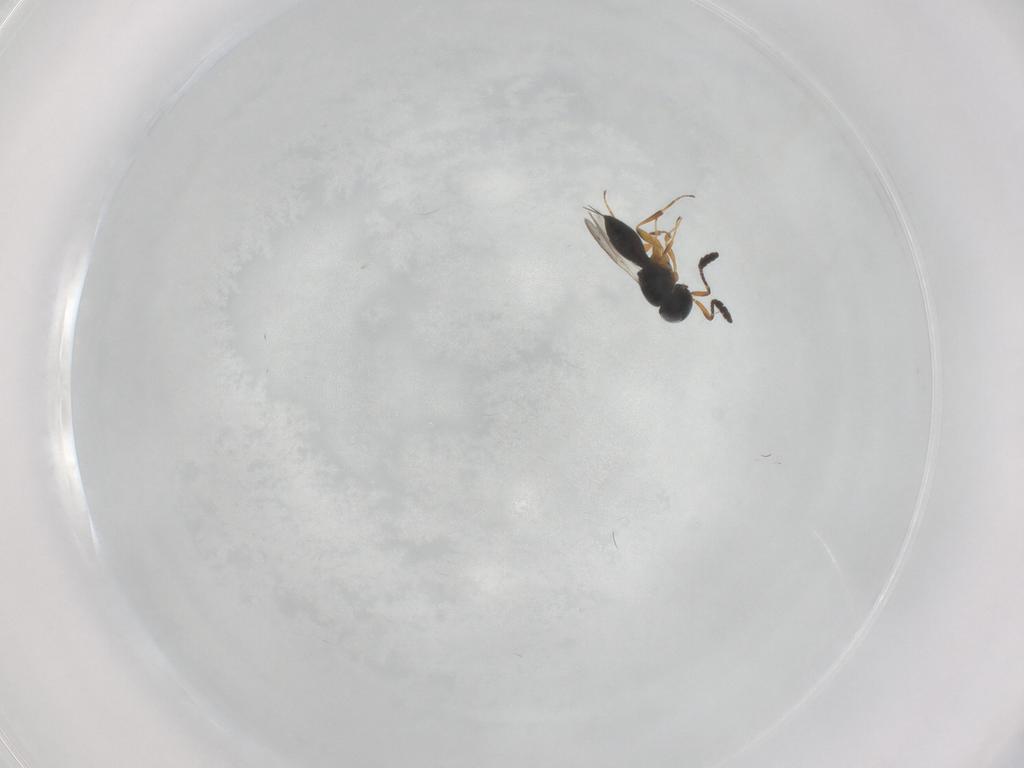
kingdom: Animalia
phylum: Arthropoda
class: Insecta
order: Hymenoptera
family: Scelionidae
